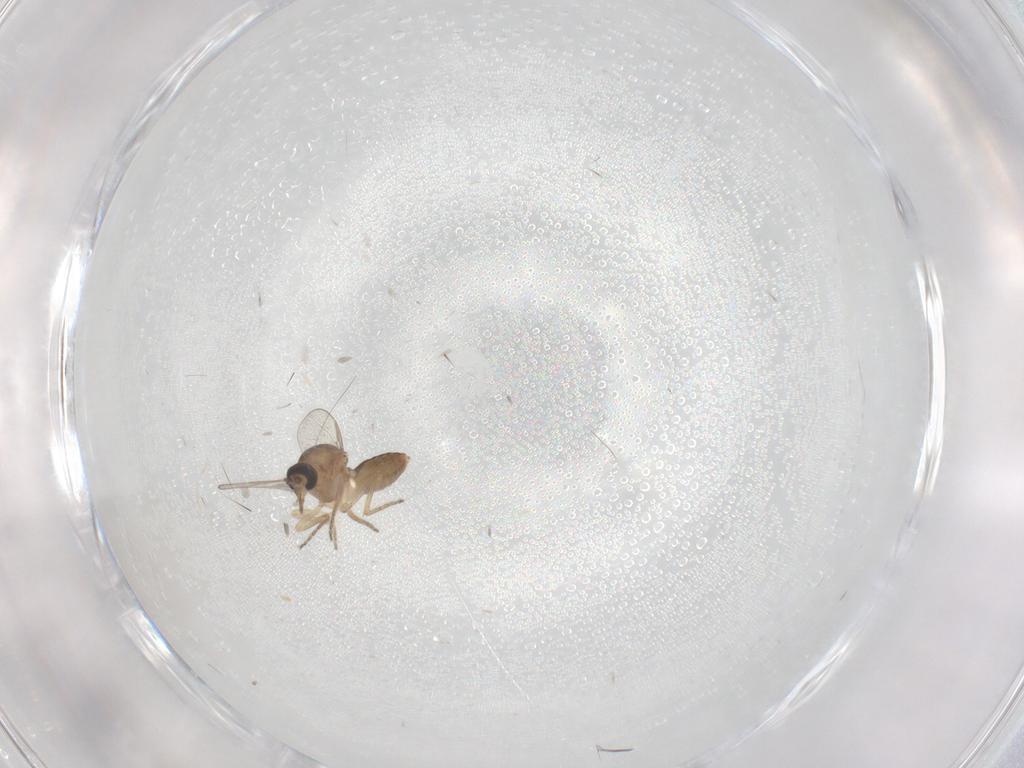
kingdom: Animalia
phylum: Arthropoda
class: Insecta
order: Diptera
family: Ceratopogonidae
